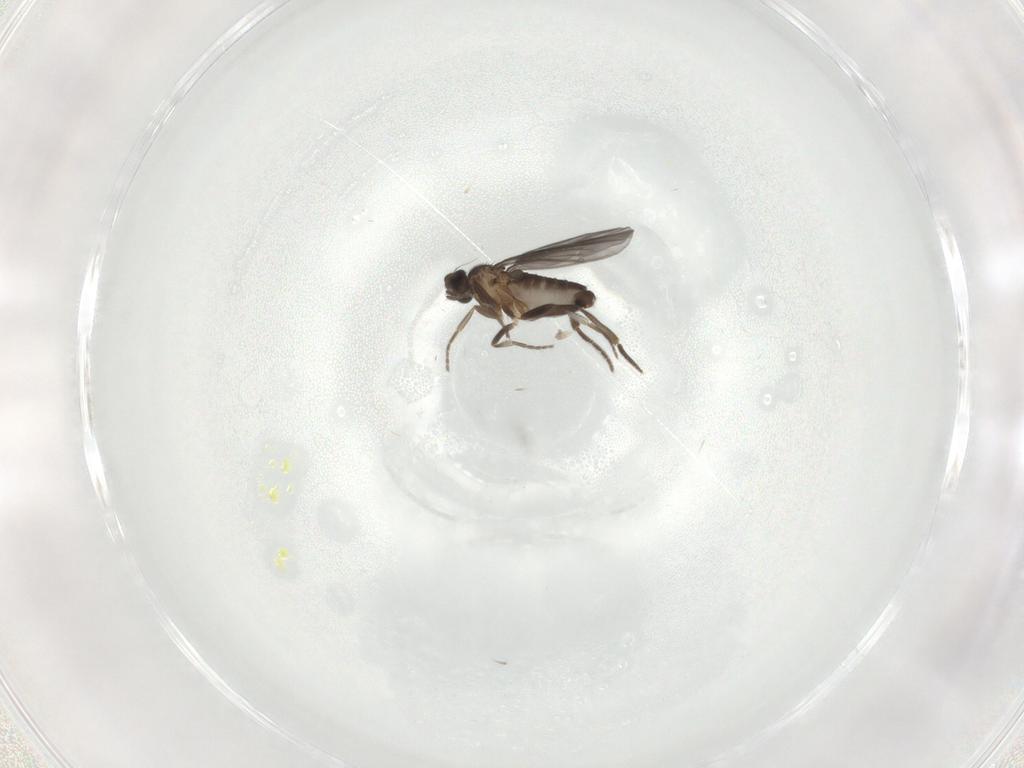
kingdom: Animalia
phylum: Arthropoda
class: Insecta
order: Diptera
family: Phoridae
